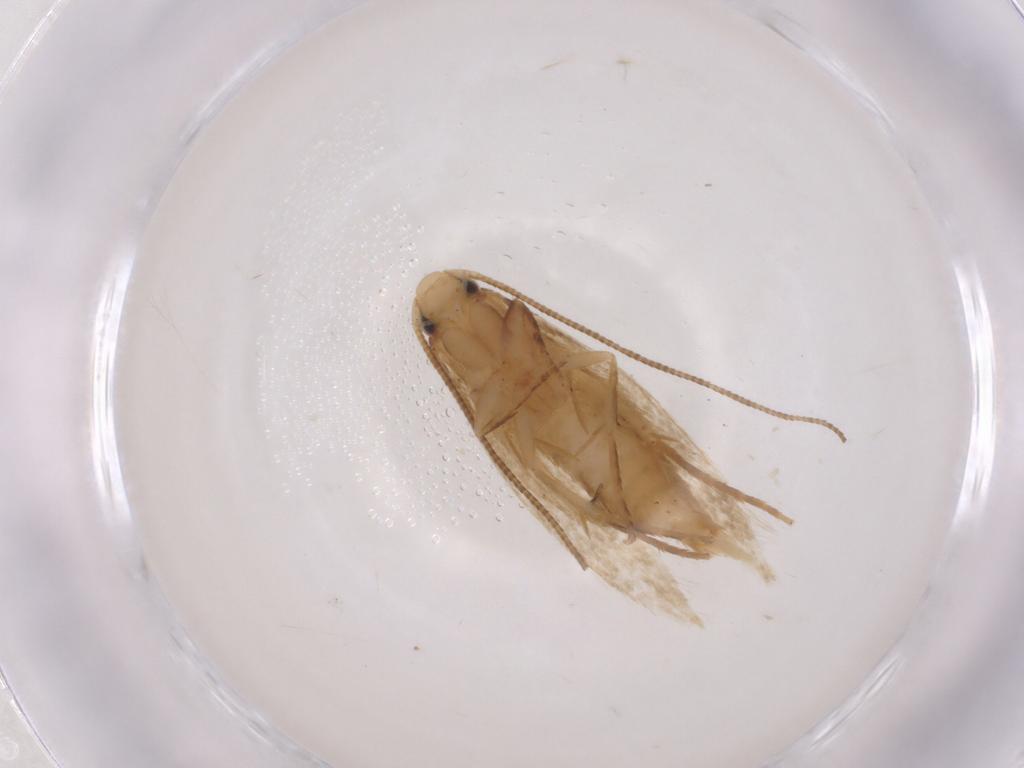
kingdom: Animalia
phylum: Arthropoda
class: Insecta
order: Lepidoptera
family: Tineidae
